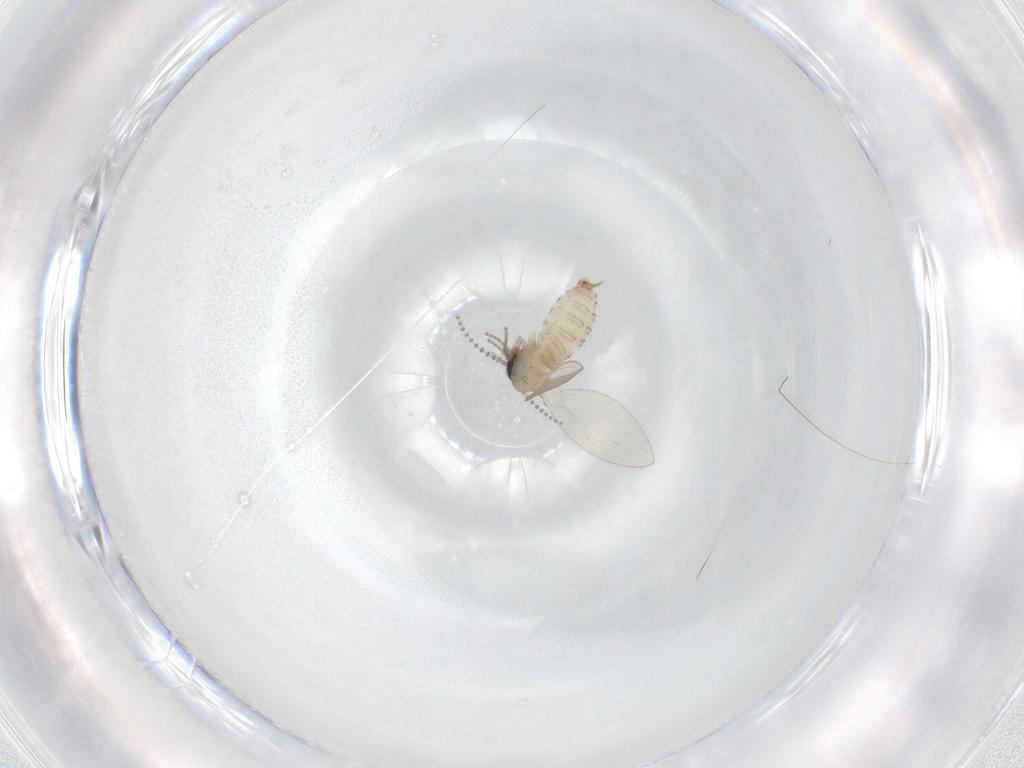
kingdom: Animalia
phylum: Arthropoda
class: Insecta
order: Diptera
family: Psychodidae
